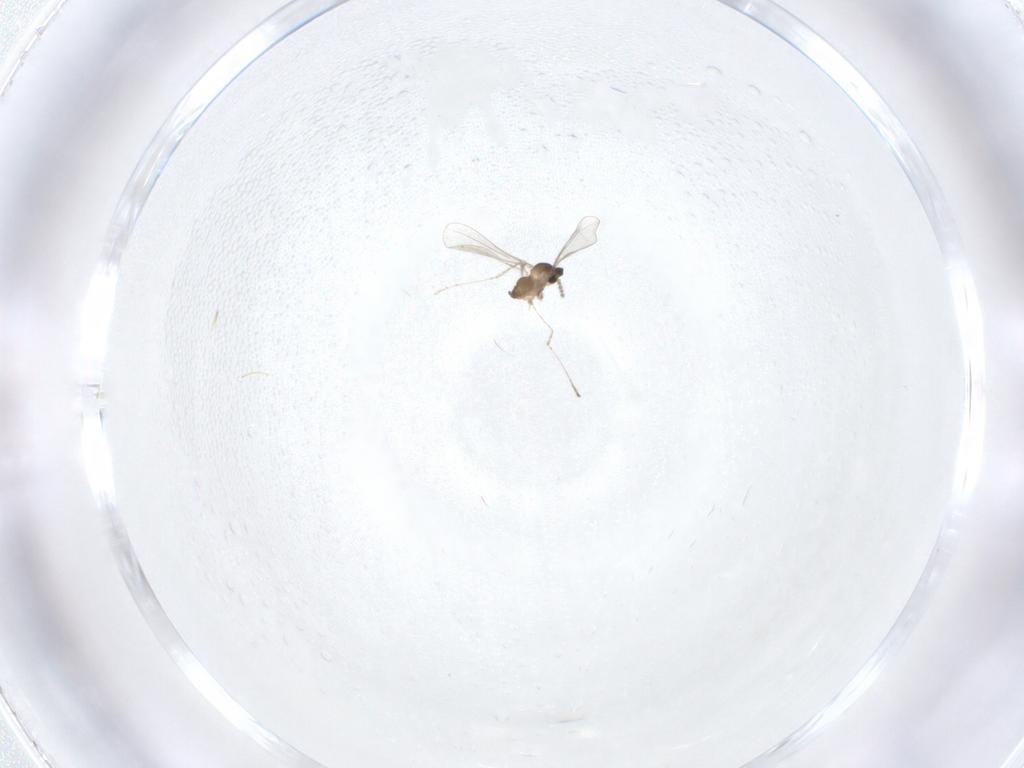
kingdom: Animalia
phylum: Arthropoda
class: Insecta
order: Diptera
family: Cecidomyiidae
